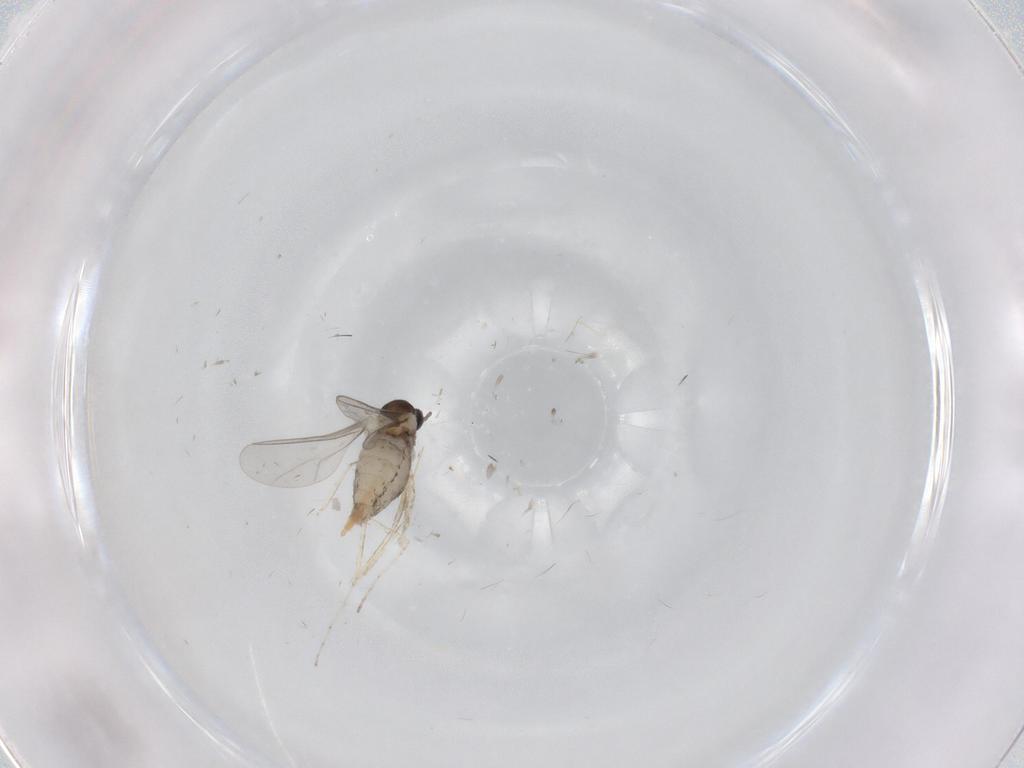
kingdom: Animalia
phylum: Arthropoda
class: Insecta
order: Diptera
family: Cecidomyiidae
